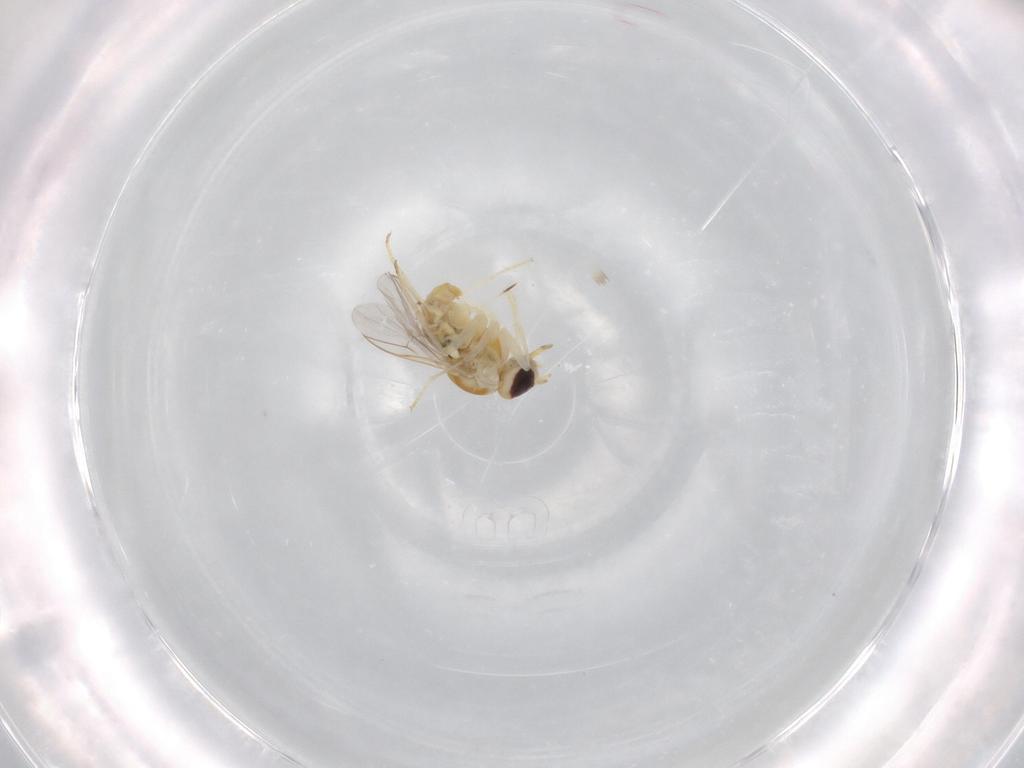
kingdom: Animalia
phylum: Arthropoda
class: Insecta
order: Diptera
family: Mythicomyiidae
